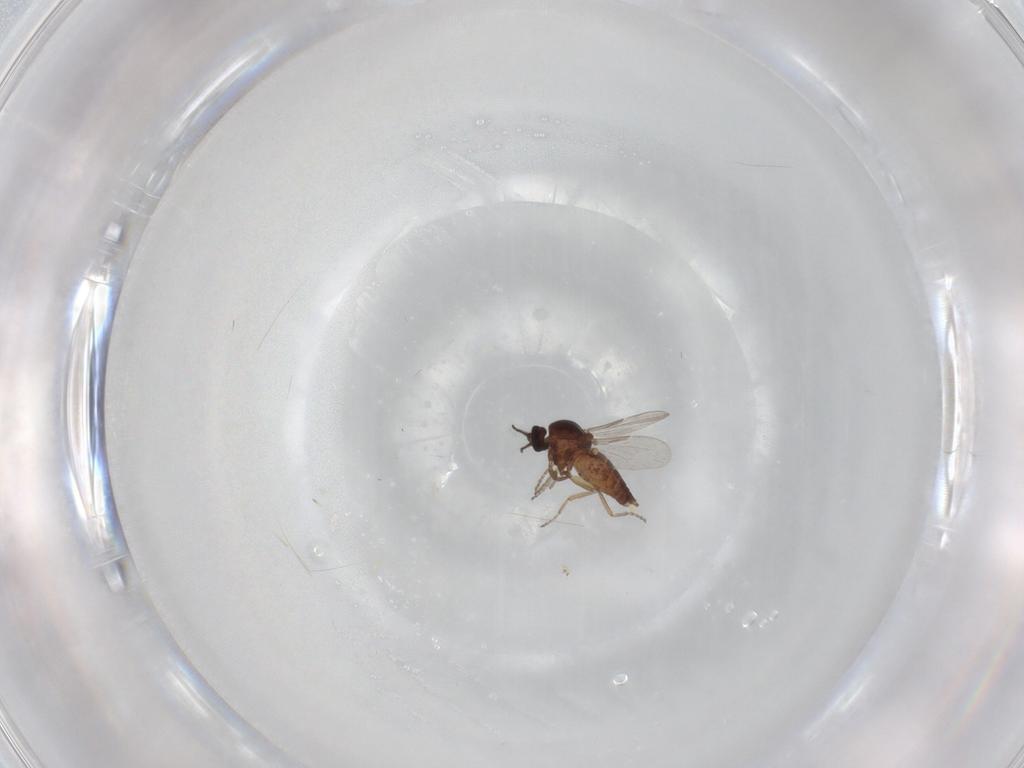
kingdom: Animalia
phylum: Arthropoda
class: Insecta
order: Diptera
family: Ceratopogonidae
